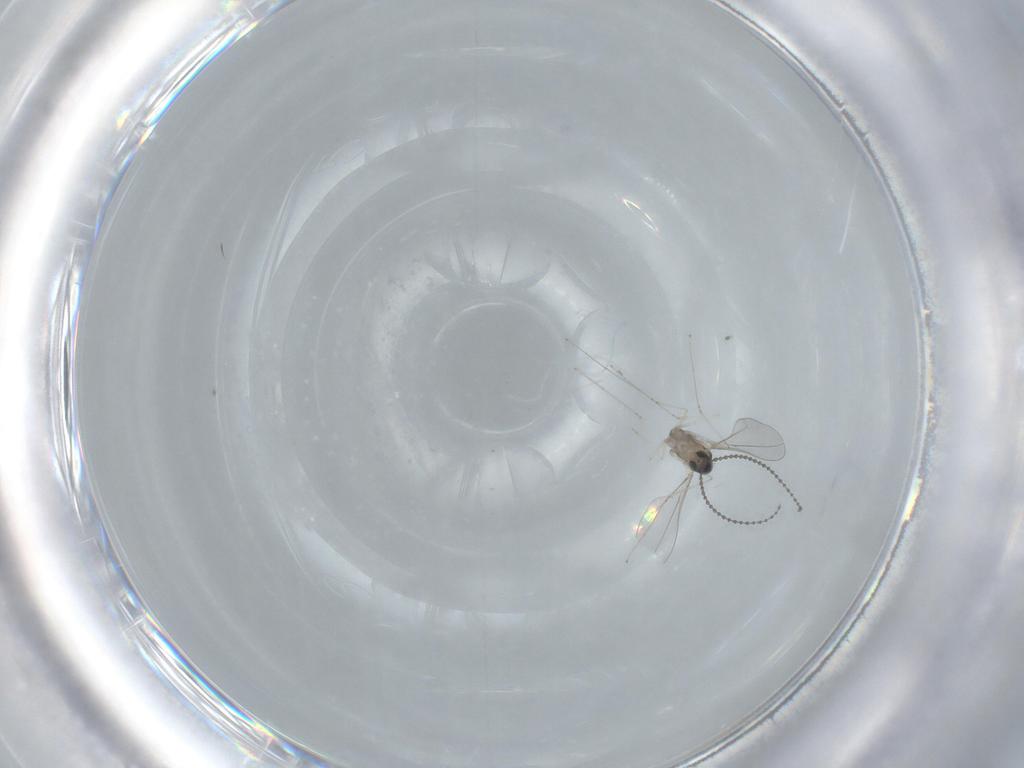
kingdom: Animalia
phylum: Arthropoda
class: Insecta
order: Diptera
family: Cecidomyiidae
